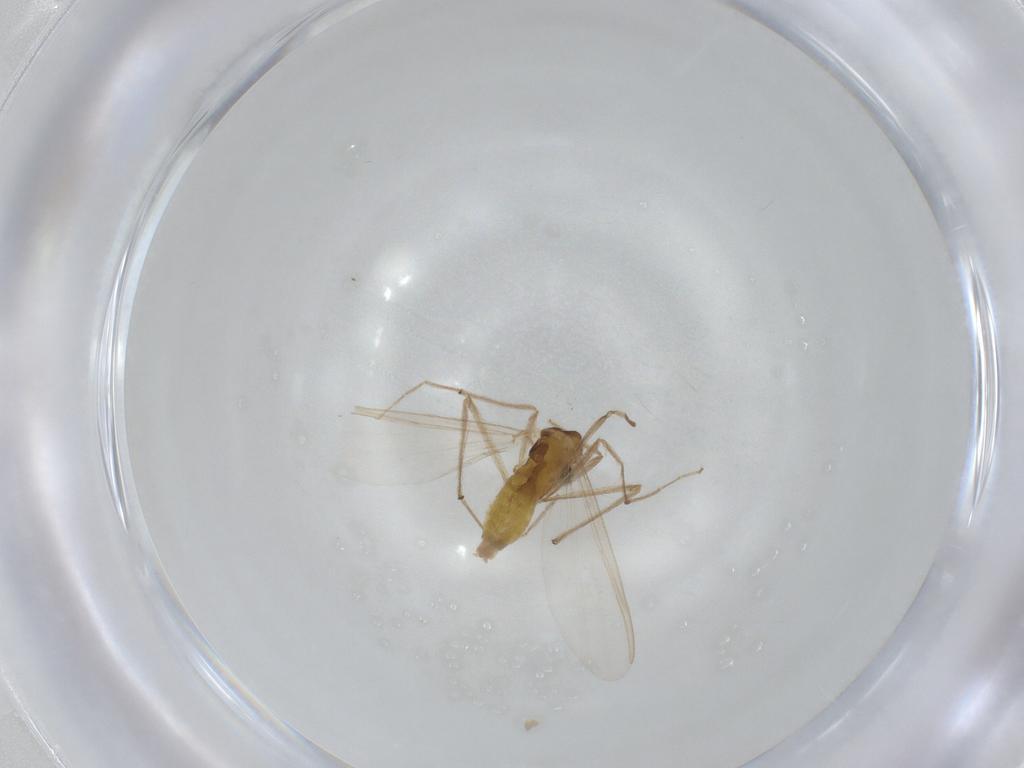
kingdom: Animalia
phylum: Arthropoda
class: Insecta
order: Diptera
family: Chironomidae
